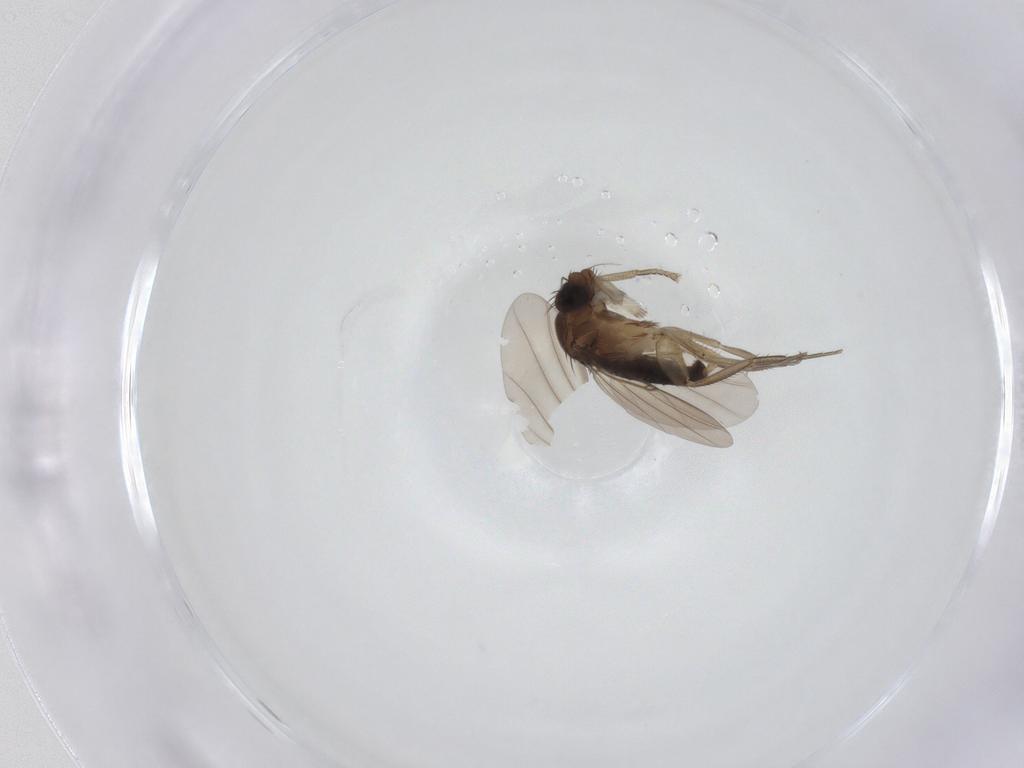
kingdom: Animalia
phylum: Arthropoda
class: Insecta
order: Diptera
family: Phoridae
